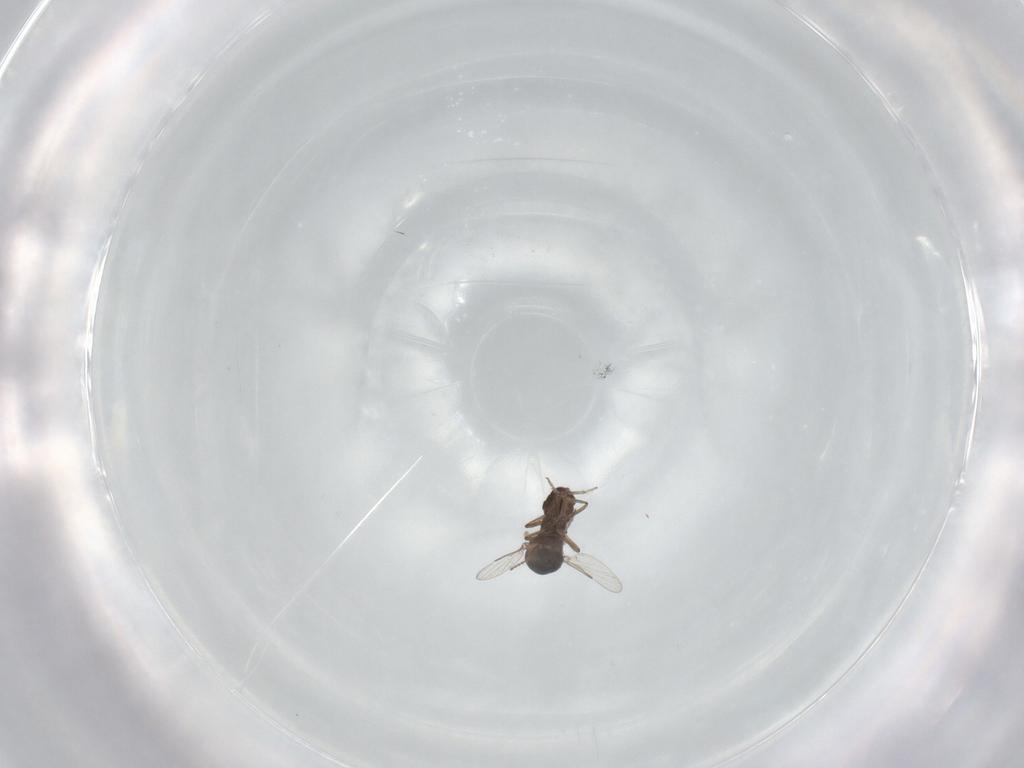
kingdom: Animalia
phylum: Arthropoda
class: Insecta
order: Diptera
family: Ceratopogonidae
